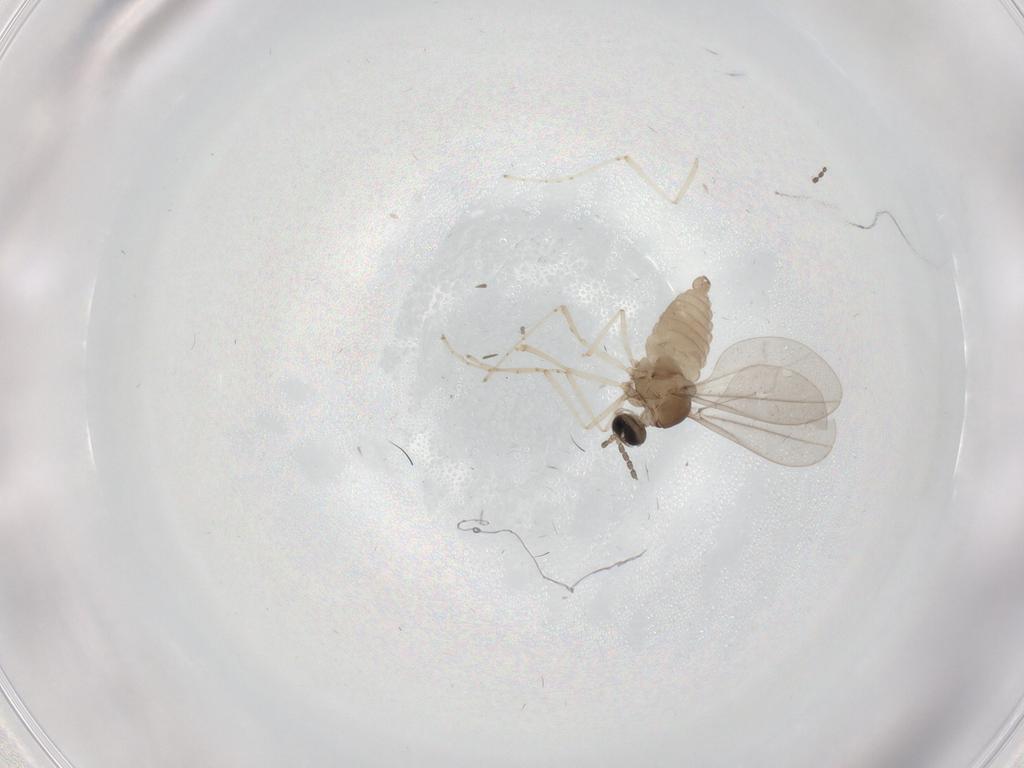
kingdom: Animalia
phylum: Arthropoda
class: Insecta
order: Diptera
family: Cecidomyiidae
